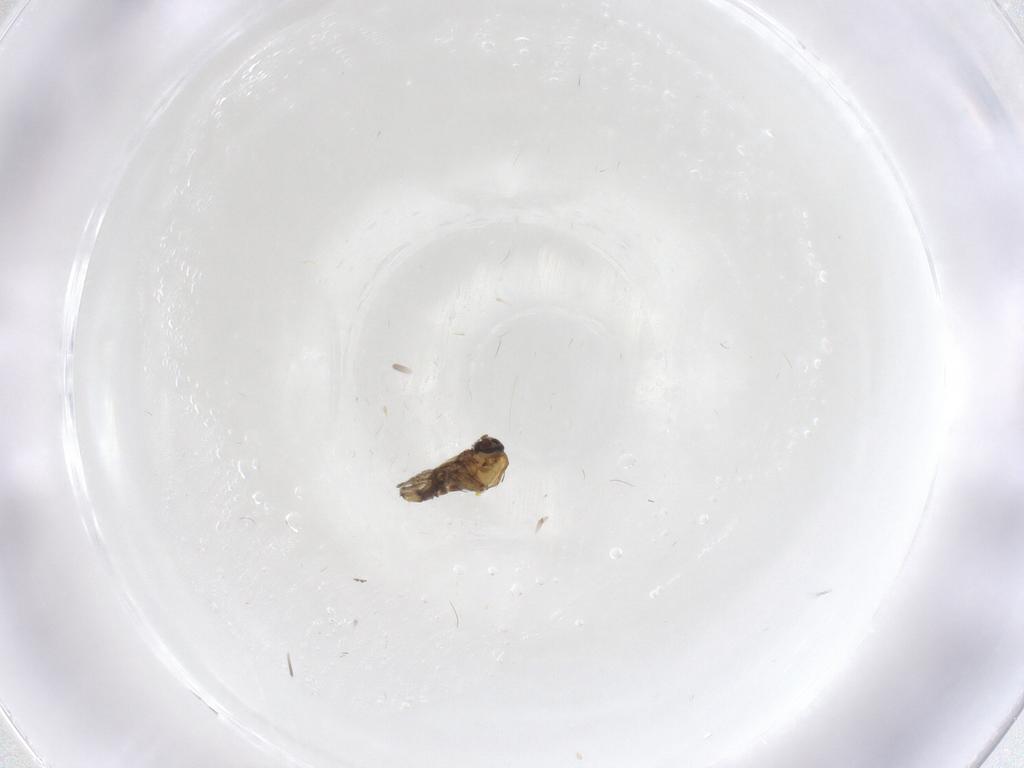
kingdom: Animalia
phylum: Arthropoda
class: Insecta
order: Diptera
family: Ceratopogonidae
